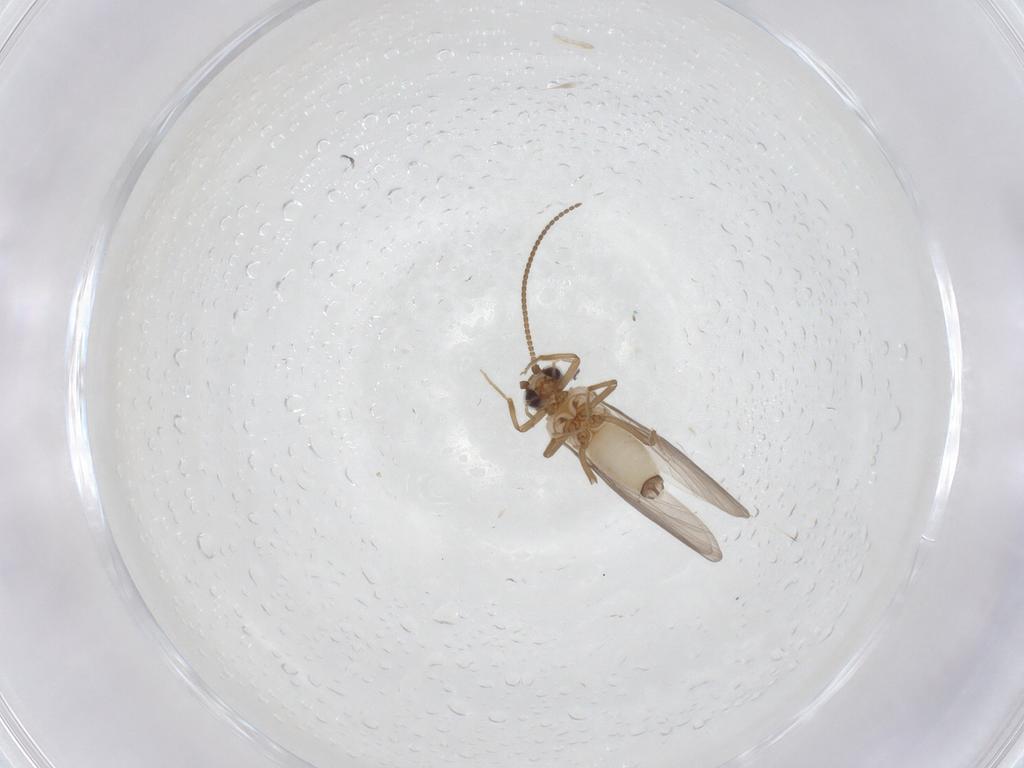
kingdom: Animalia
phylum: Arthropoda
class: Insecta
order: Neuroptera
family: Coniopterygidae
